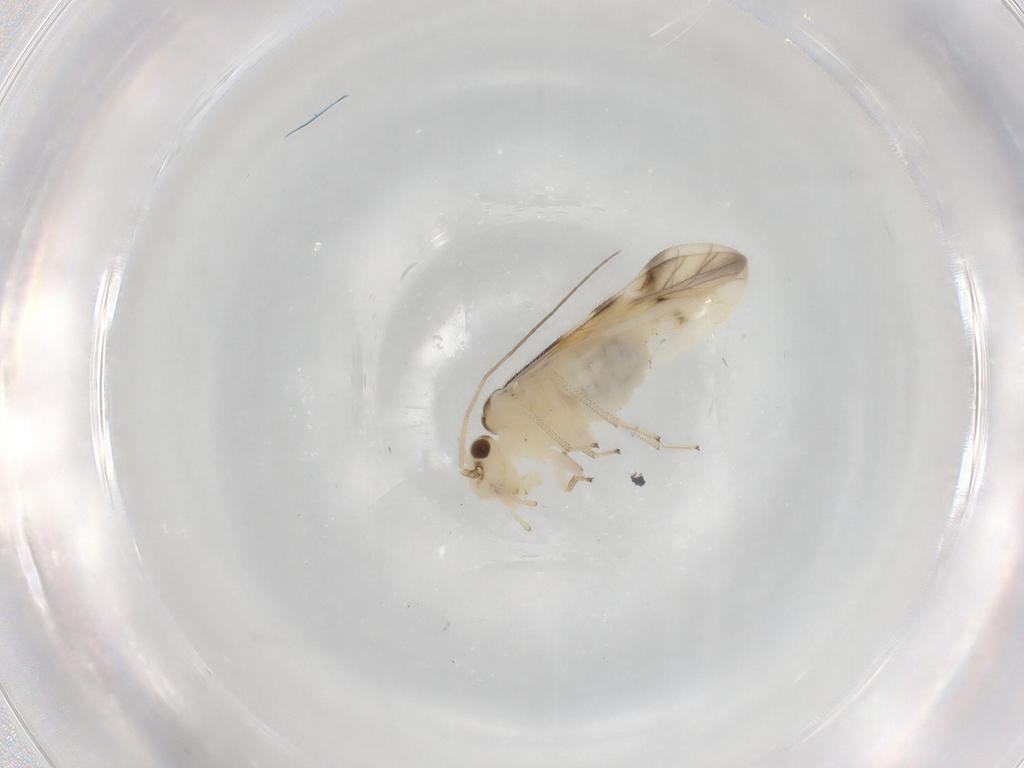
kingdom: Animalia
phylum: Arthropoda
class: Insecta
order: Psocodea
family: Caeciliusidae
